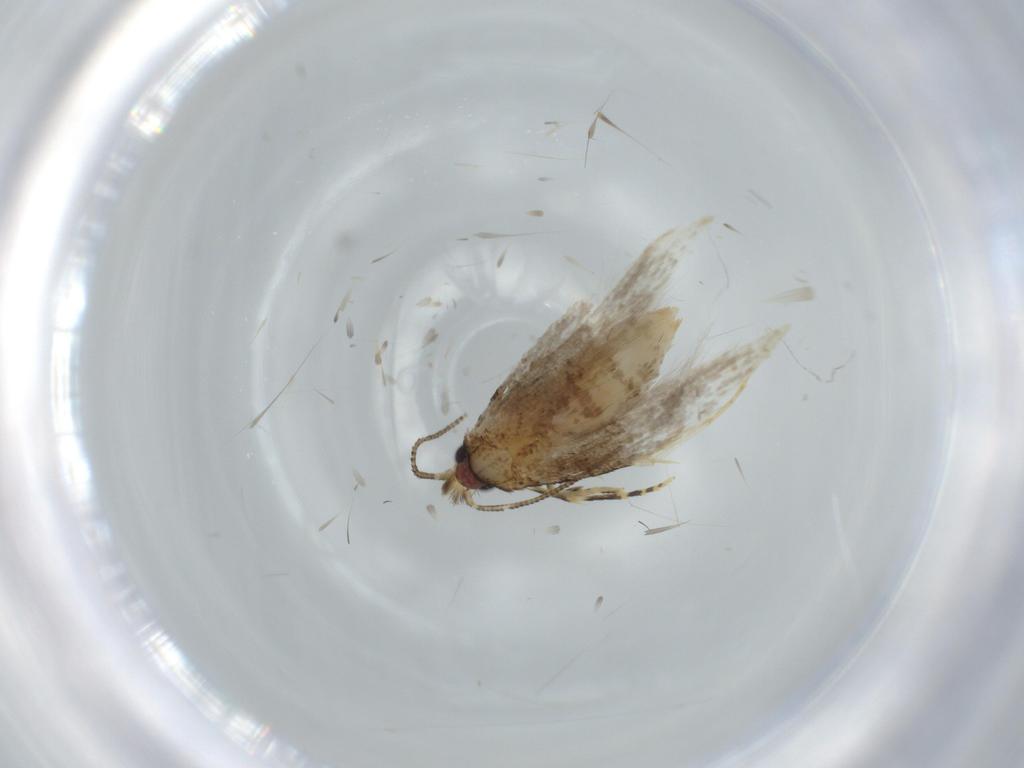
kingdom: Animalia
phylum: Arthropoda
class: Insecta
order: Lepidoptera
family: Tineidae
